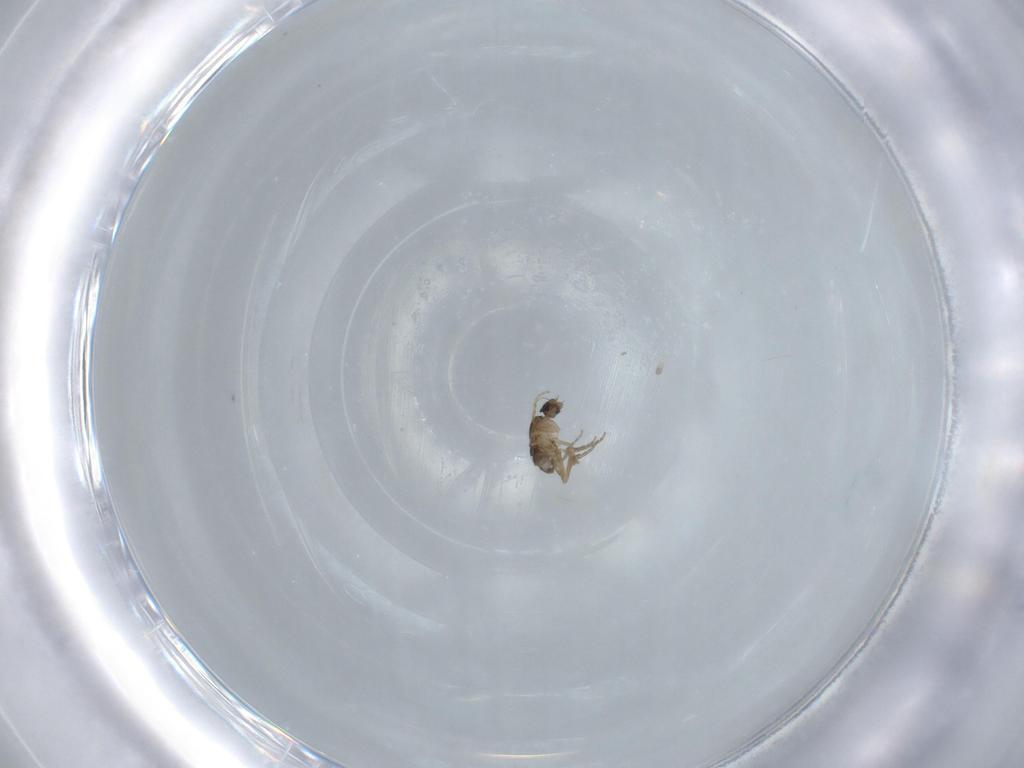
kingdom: Animalia
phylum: Arthropoda
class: Insecta
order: Diptera
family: Phoridae
